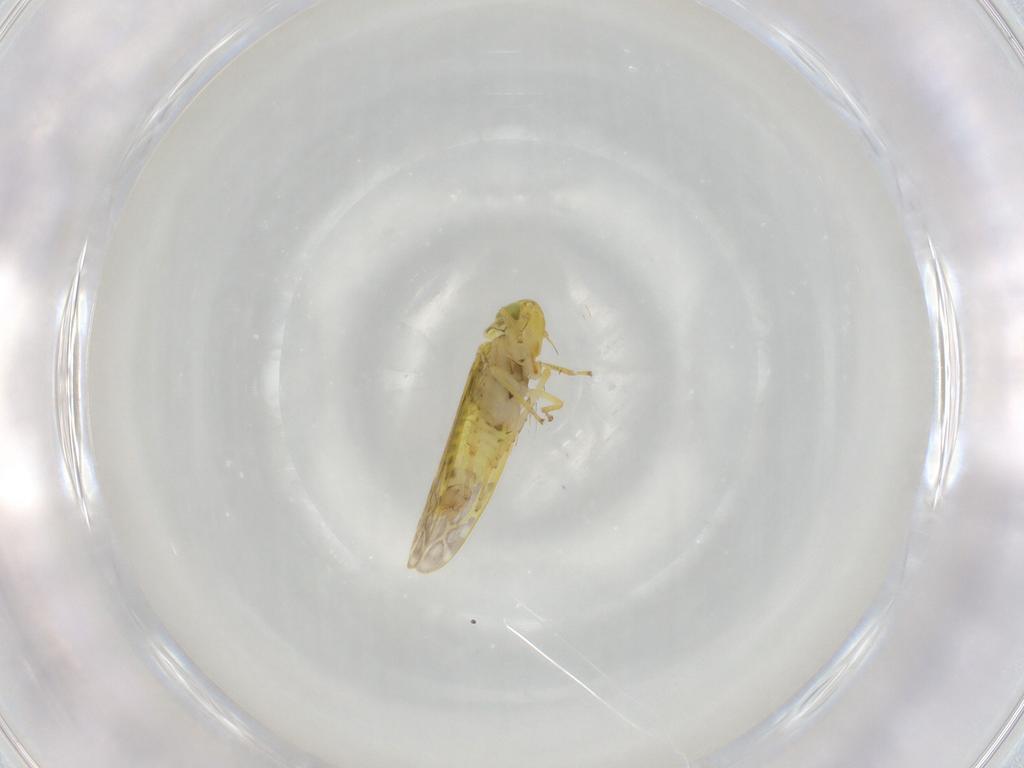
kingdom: Animalia
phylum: Arthropoda
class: Insecta
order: Hemiptera
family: Cicadellidae
